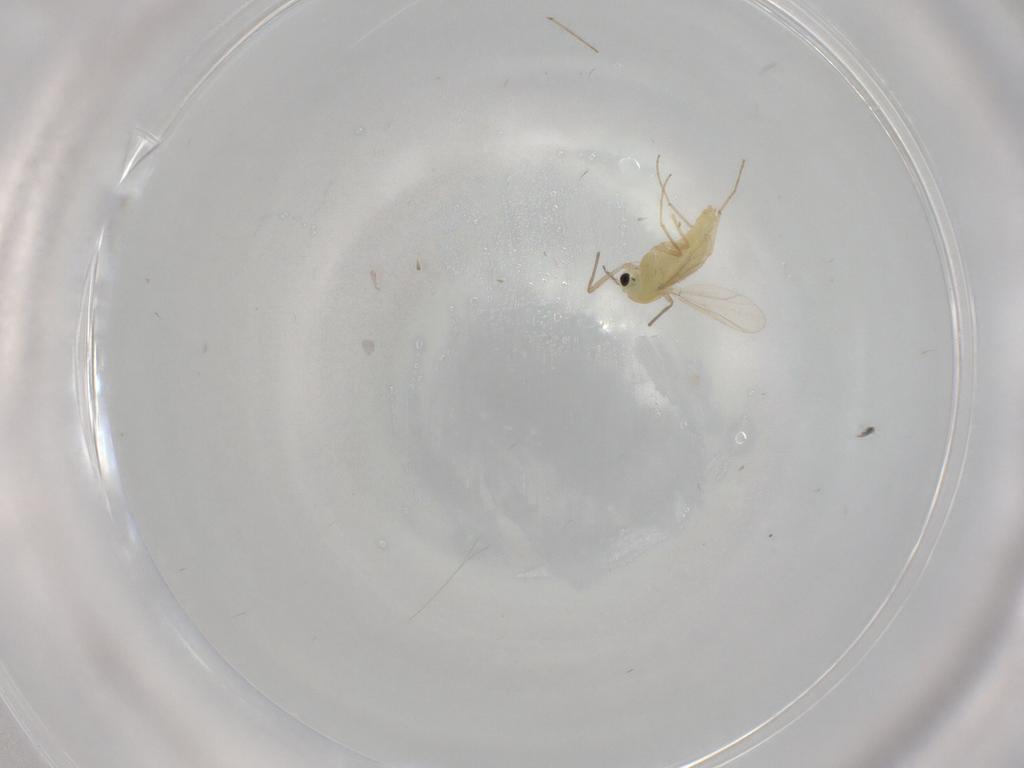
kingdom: Animalia
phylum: Arthropoda
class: Insecta
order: Diptera
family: Chironomidae
